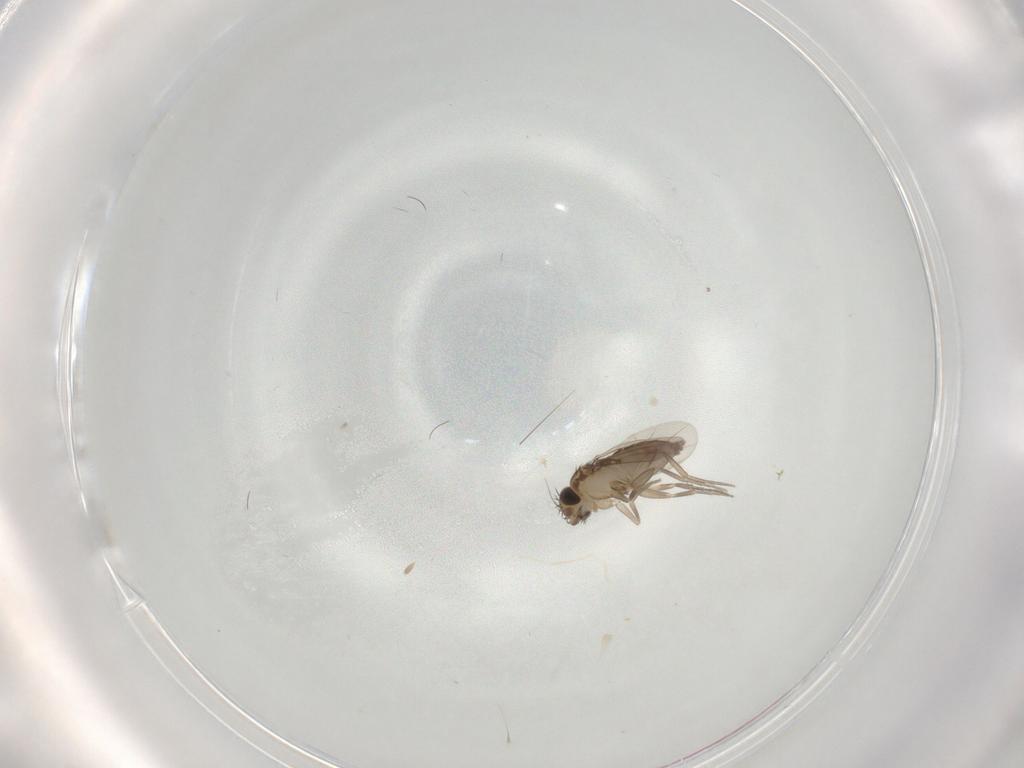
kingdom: Animalia
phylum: Arthropoda
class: Insecta
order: Diptera
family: Phoridae
